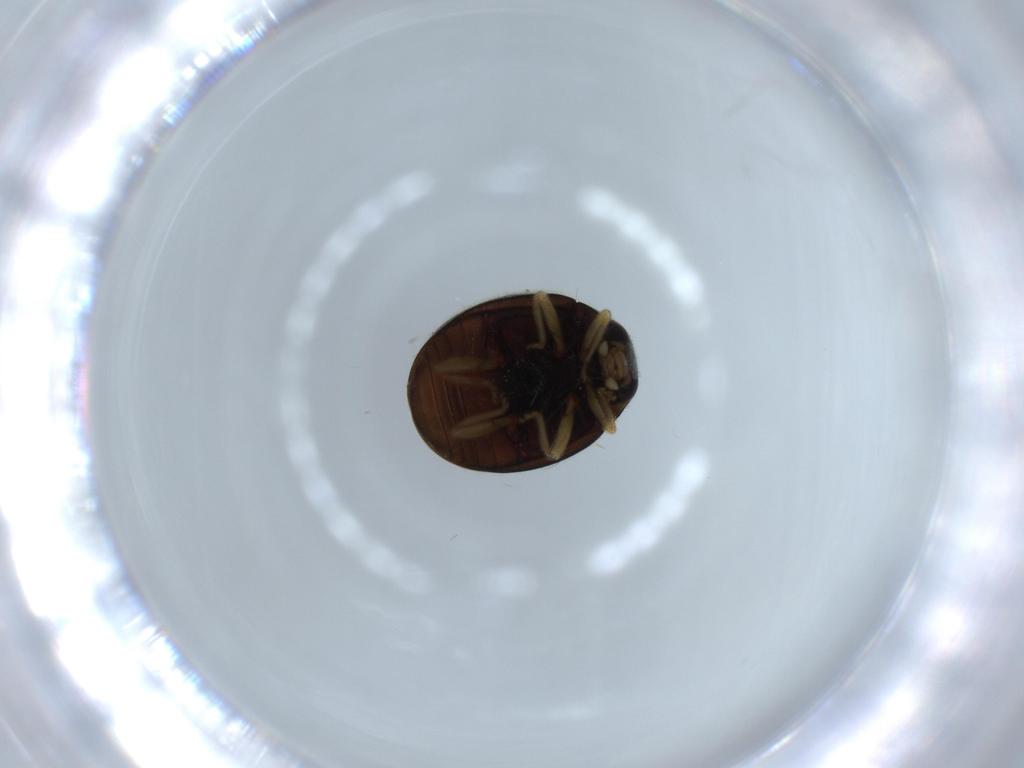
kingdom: Animalia
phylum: Arthropoda
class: Insecta
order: Coleoptera
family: Coccinellidae
